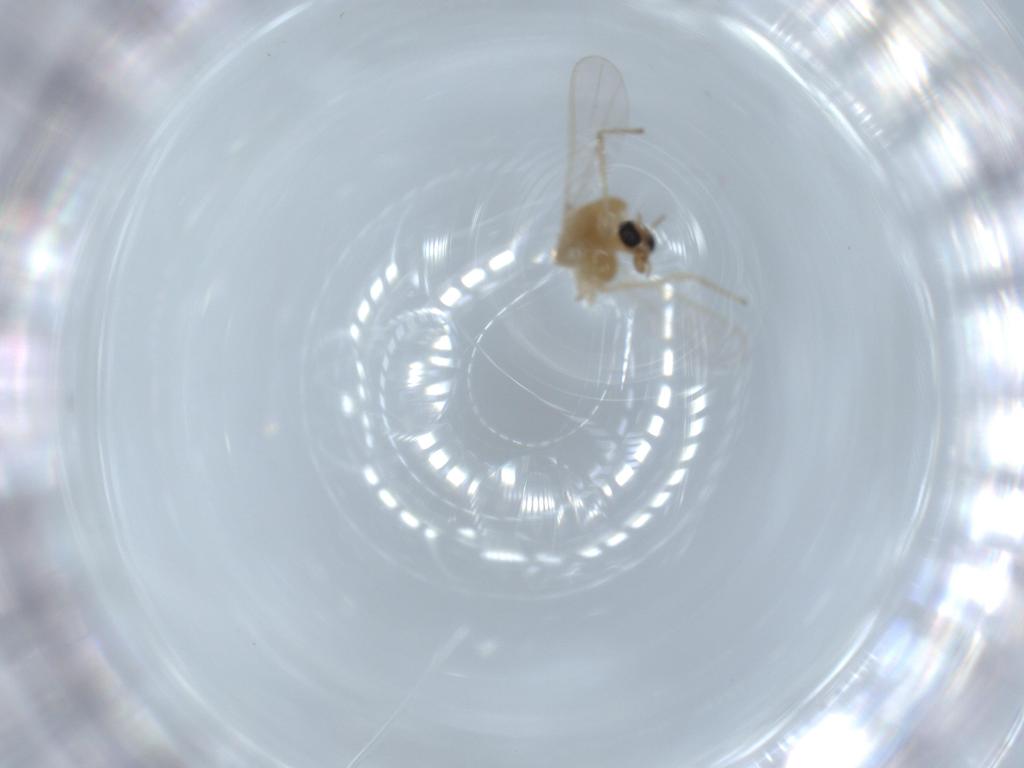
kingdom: Animalia
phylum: Arthropoda
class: Insecta
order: Diptera
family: Chironomidae
